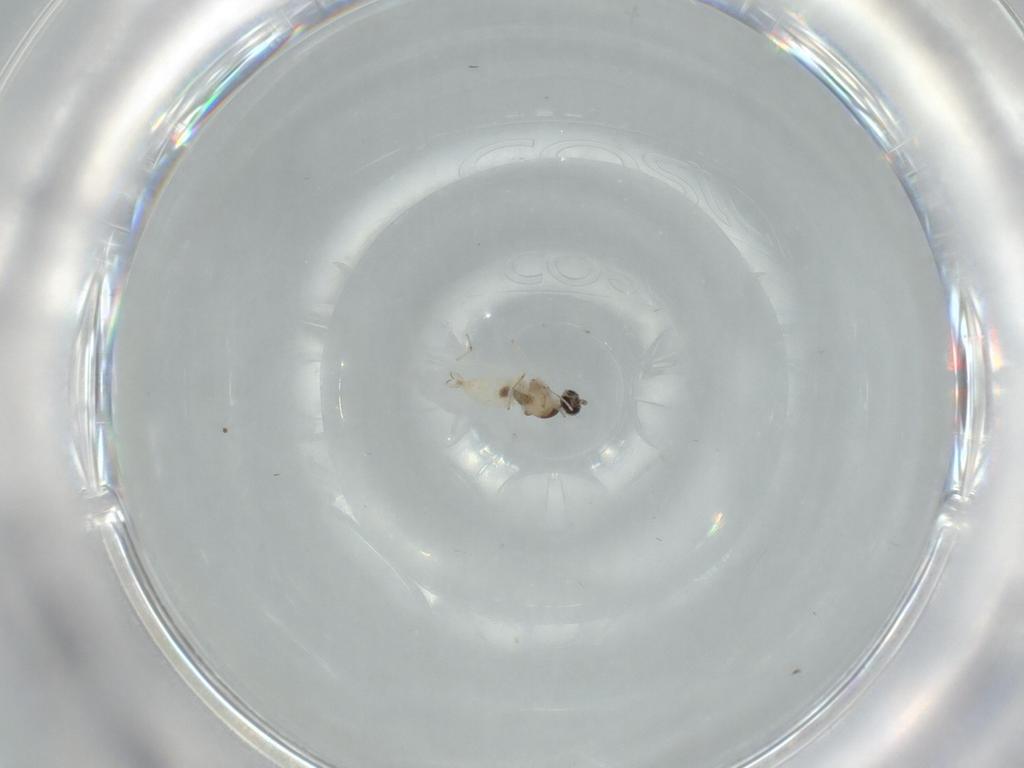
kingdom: Animalia
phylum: Arthropoda
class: Insecta
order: Diptera
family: Cecidomyiidae
